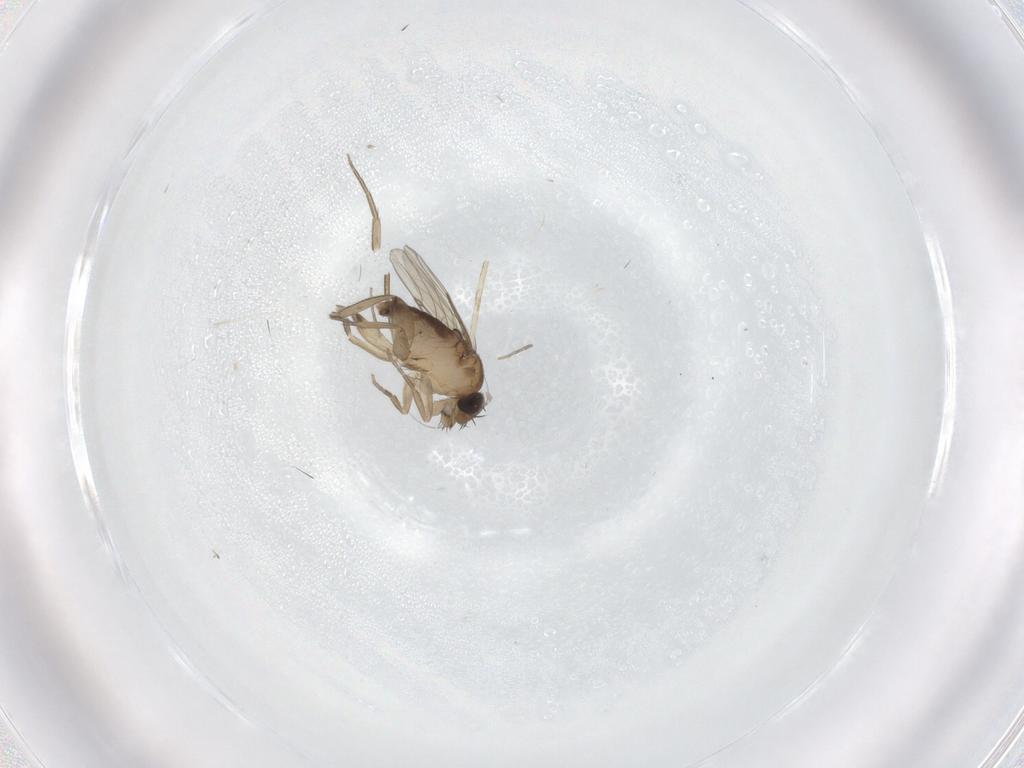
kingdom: Animalia
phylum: Arthropoda
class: Insecta
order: Diptera
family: Phoridae
